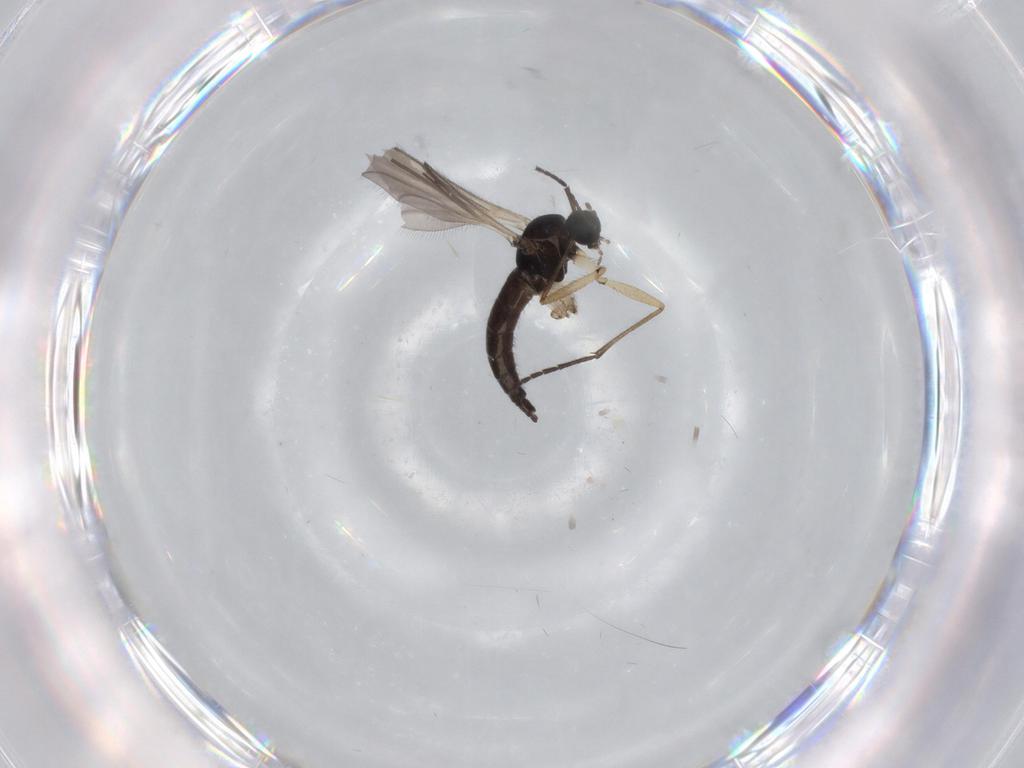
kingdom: Animalia
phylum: Arthropoda
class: Insecta
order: Diptera
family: Sciaridae
